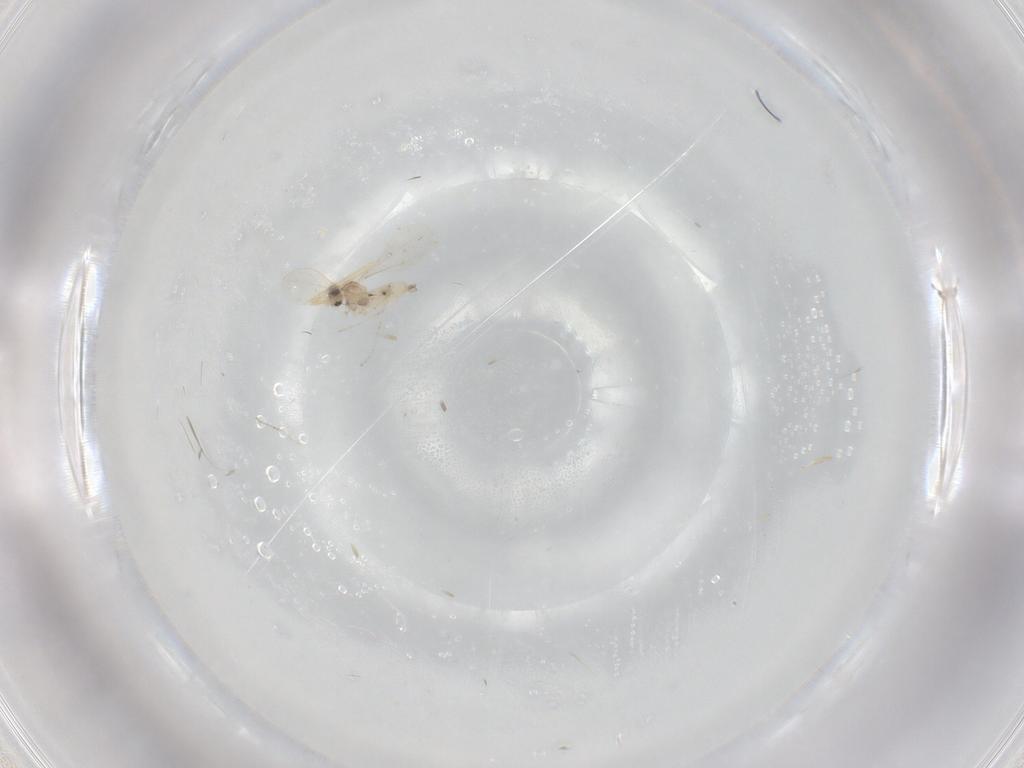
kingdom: Animalia
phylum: Arthropoda
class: Insecta
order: Diptera
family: Cecidomyiidae
